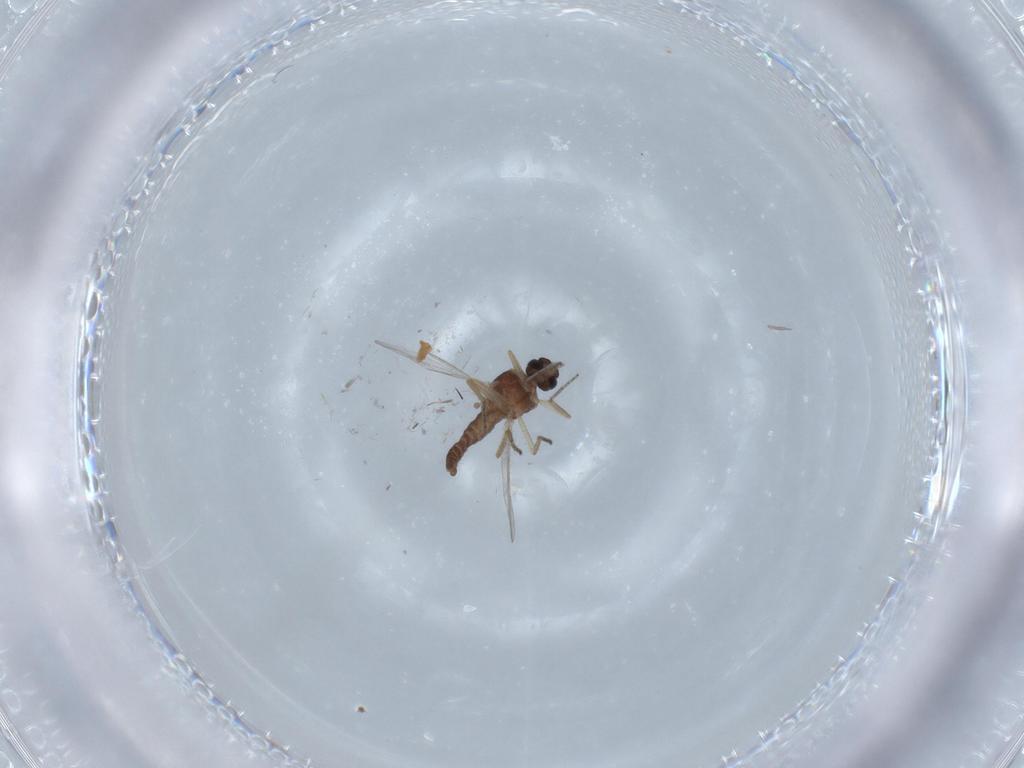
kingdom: Animalia
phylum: Arthropoda
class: Insecta
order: Diptera
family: Ceratopogonidae
